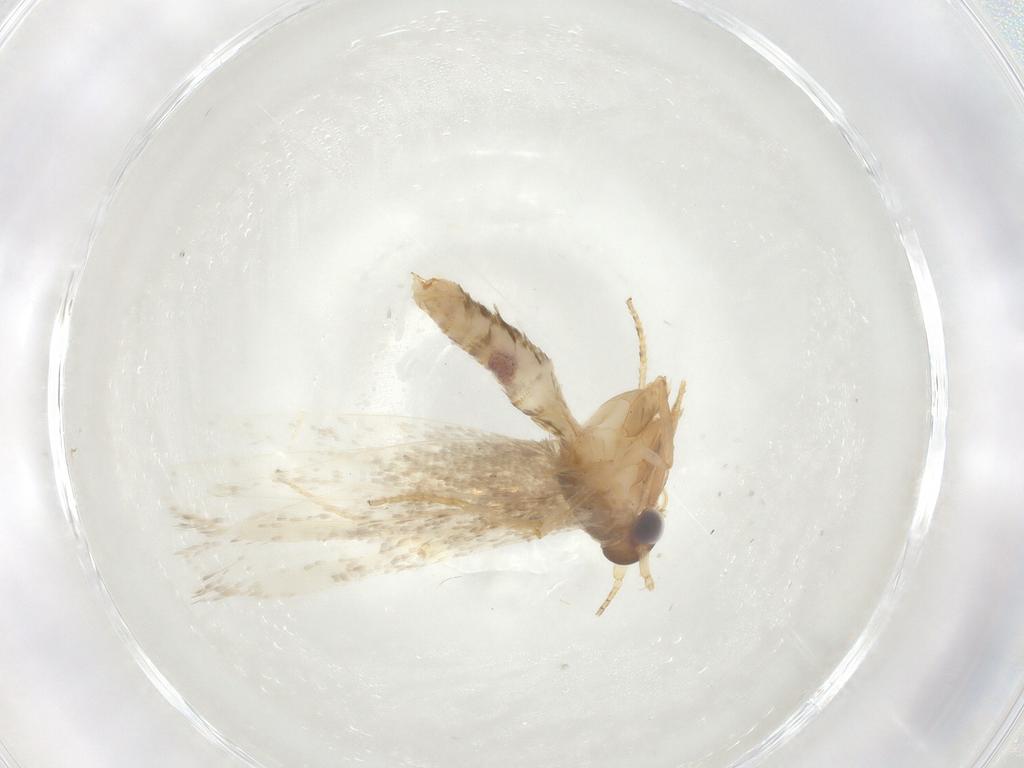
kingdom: Animalia
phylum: Arthropoda
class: Insecta
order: Lepidoptera
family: Coleophoridae
